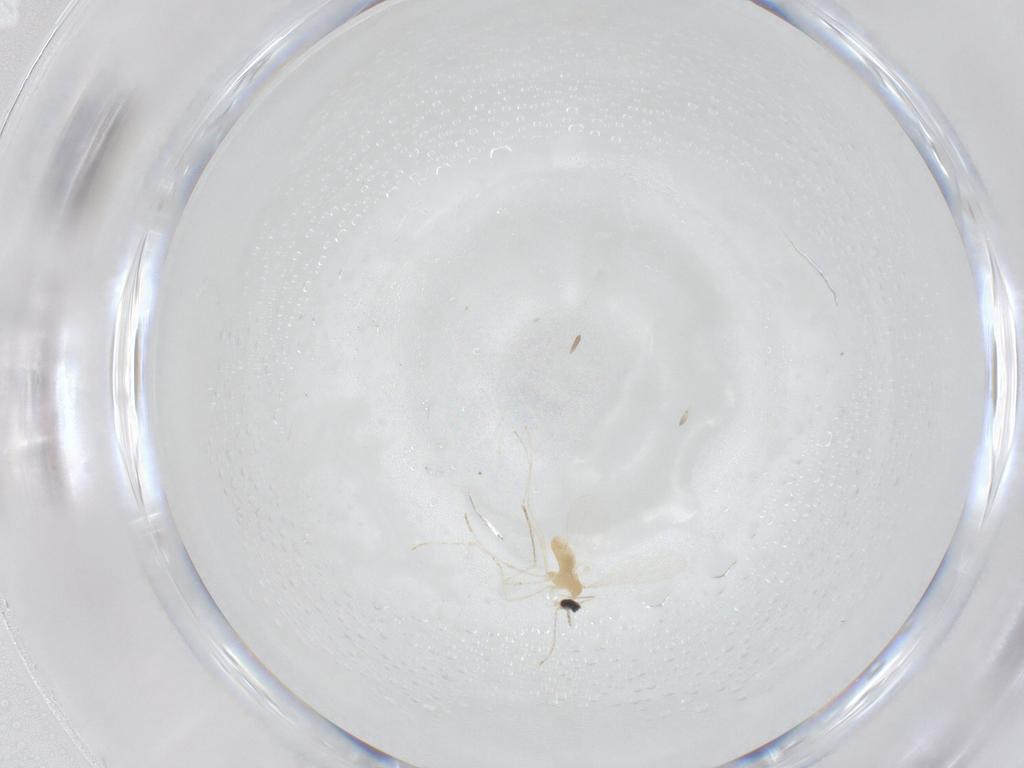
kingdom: Animalia
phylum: Arthropoda
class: Insecta
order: Diptera
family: Cecidomyiidae
